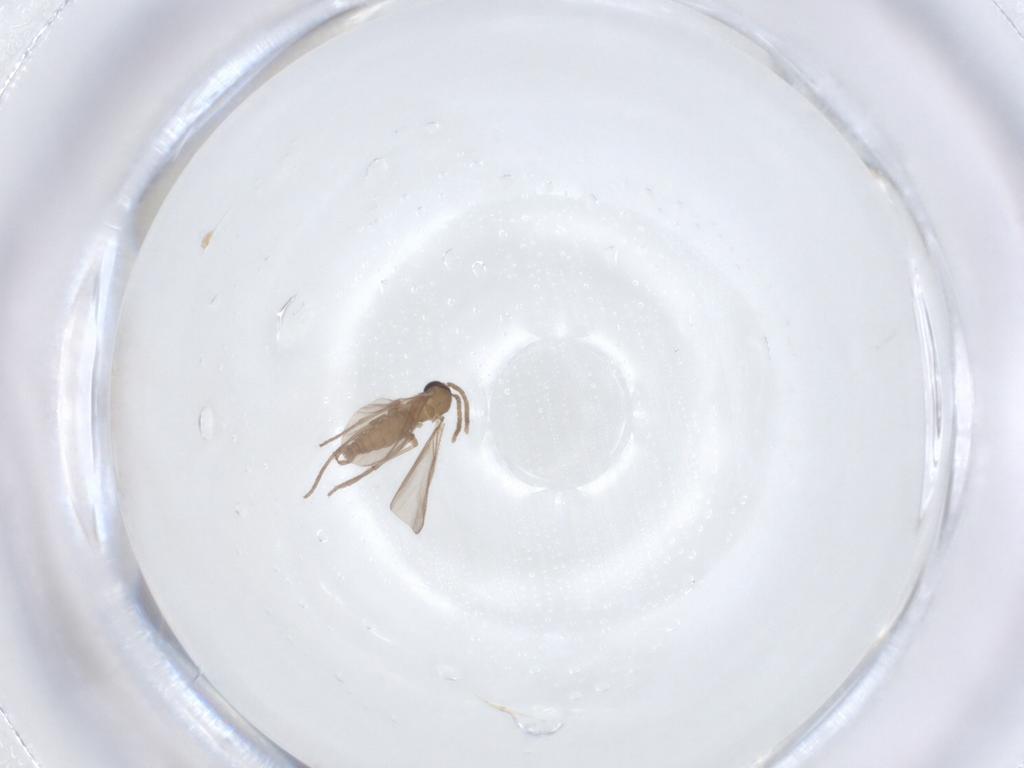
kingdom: Animalia
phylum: Arthropoda
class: Insecta
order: Diptera
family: Sciaridae
